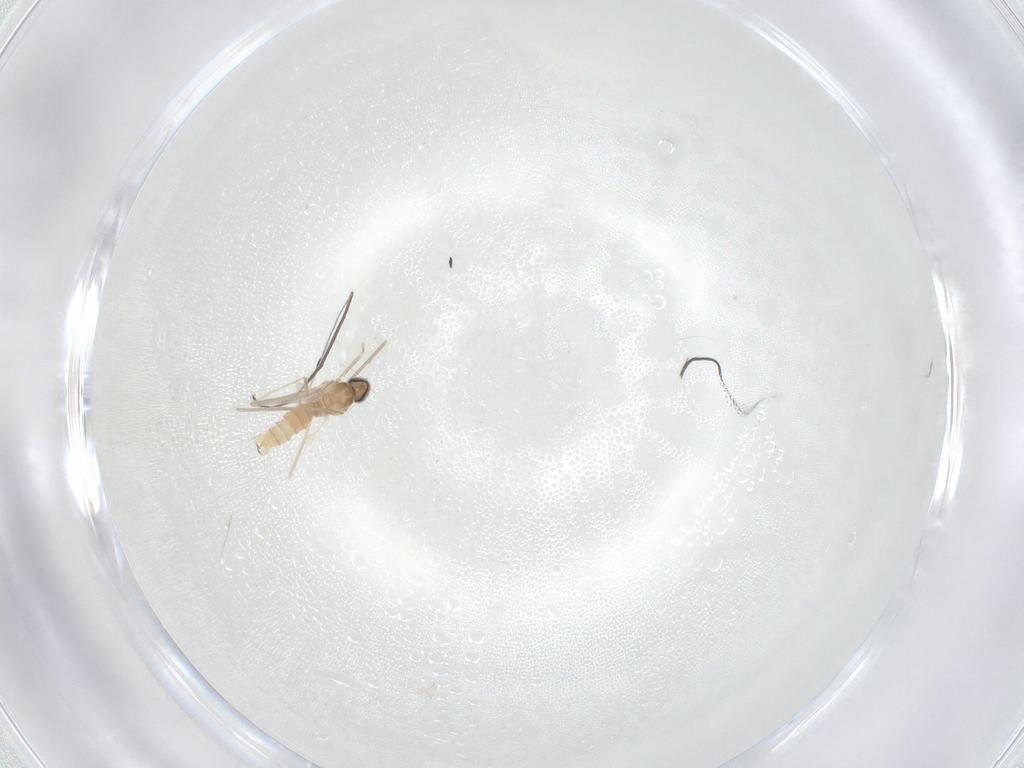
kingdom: Animalia
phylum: Arthropoda
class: Insecta
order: Diptera
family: Cecidomyiidae
